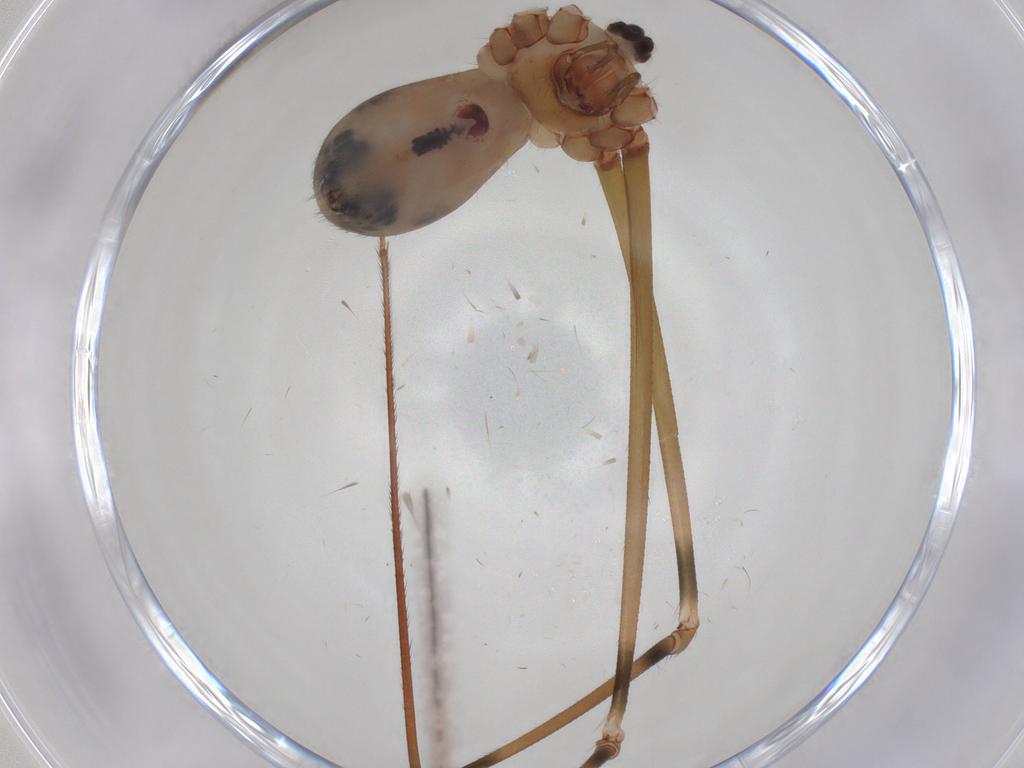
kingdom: Animalia
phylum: Arthropoda
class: Arachnida
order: Araneae
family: Pholcidae
